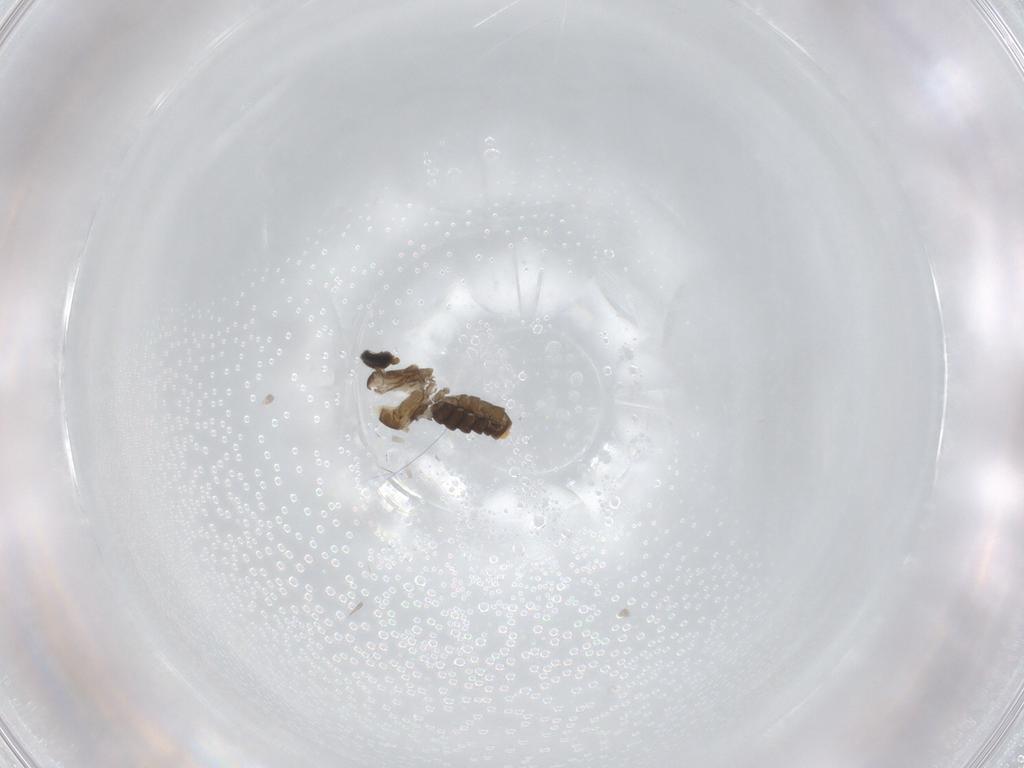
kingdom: Animalia
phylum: Arthropoda
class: Insecta
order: Diptera
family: Cecidomyiidae
